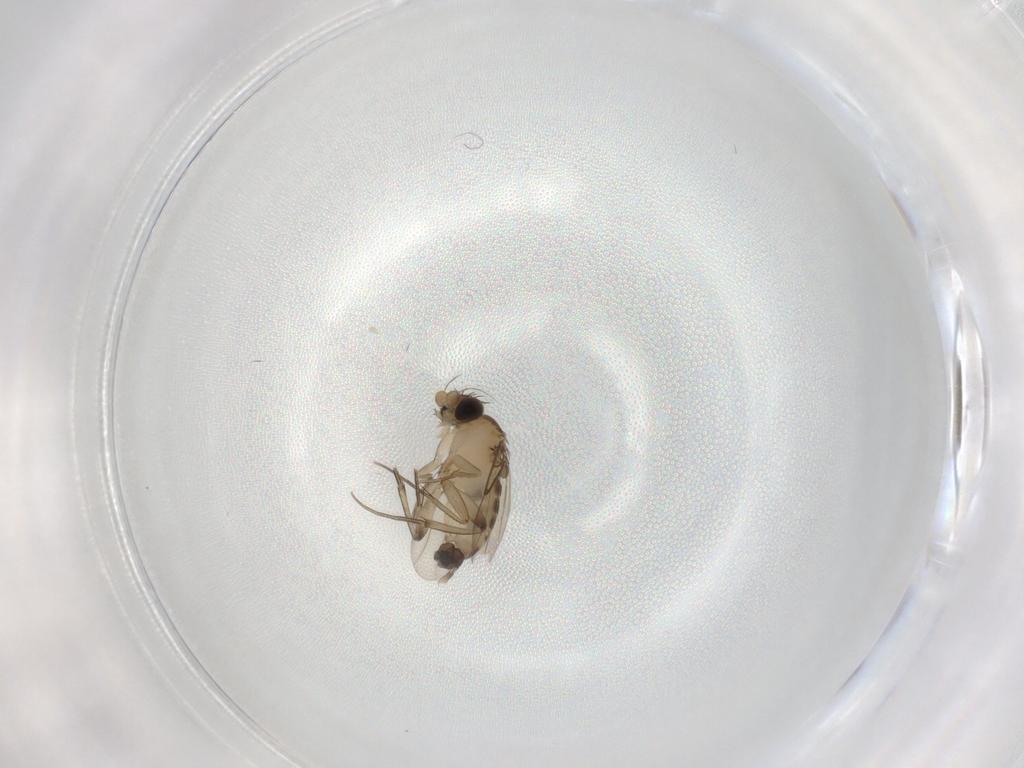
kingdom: Animalia
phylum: Arthropoda
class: Insecta
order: Diptera
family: Phoridae
